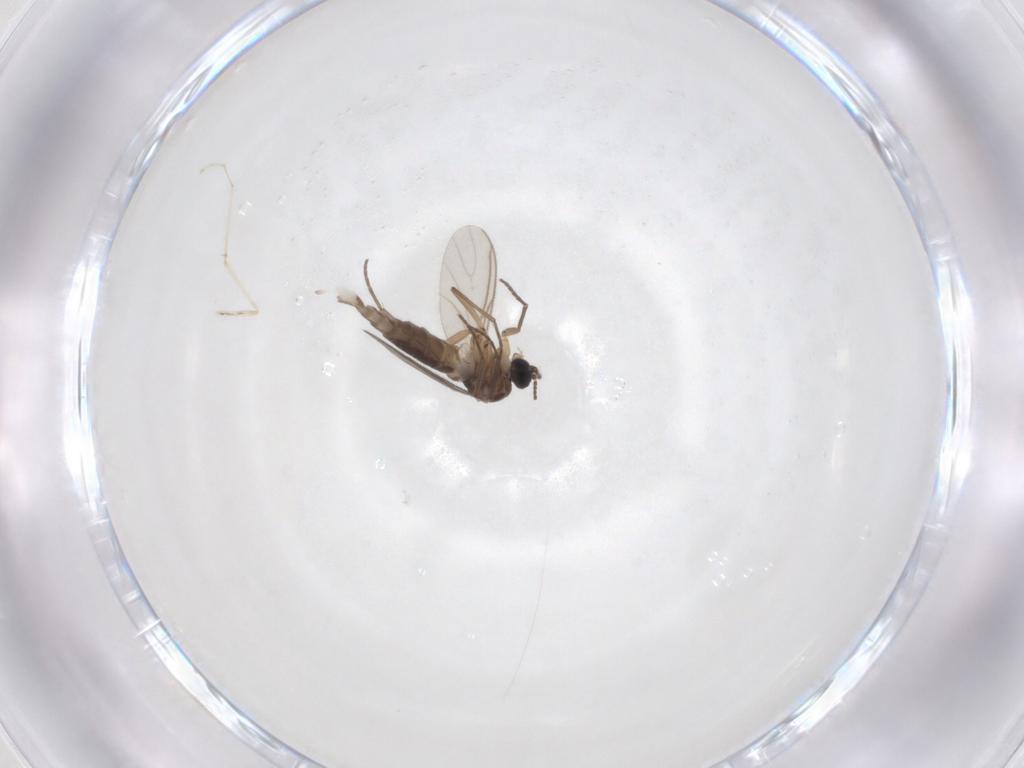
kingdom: Animalia
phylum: Arthropoda
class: Insecta
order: Diptera
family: Sciaridae
